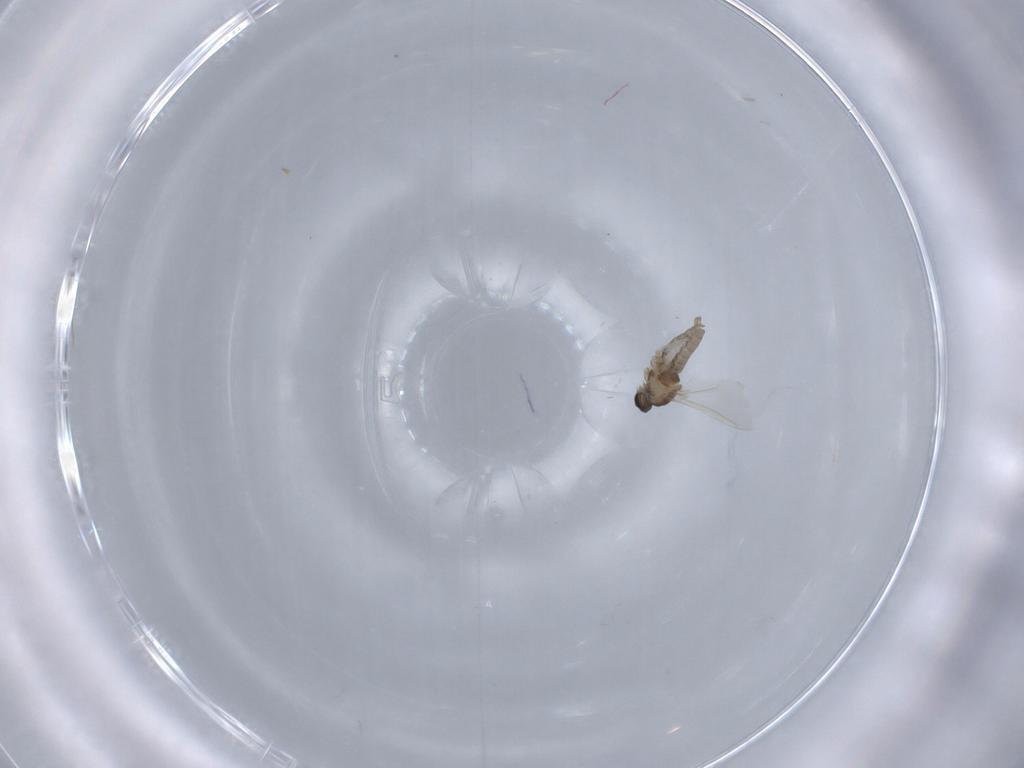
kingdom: Animalia
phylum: Arthropoda
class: Insecta
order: Diptera
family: Cecidomyiidae
